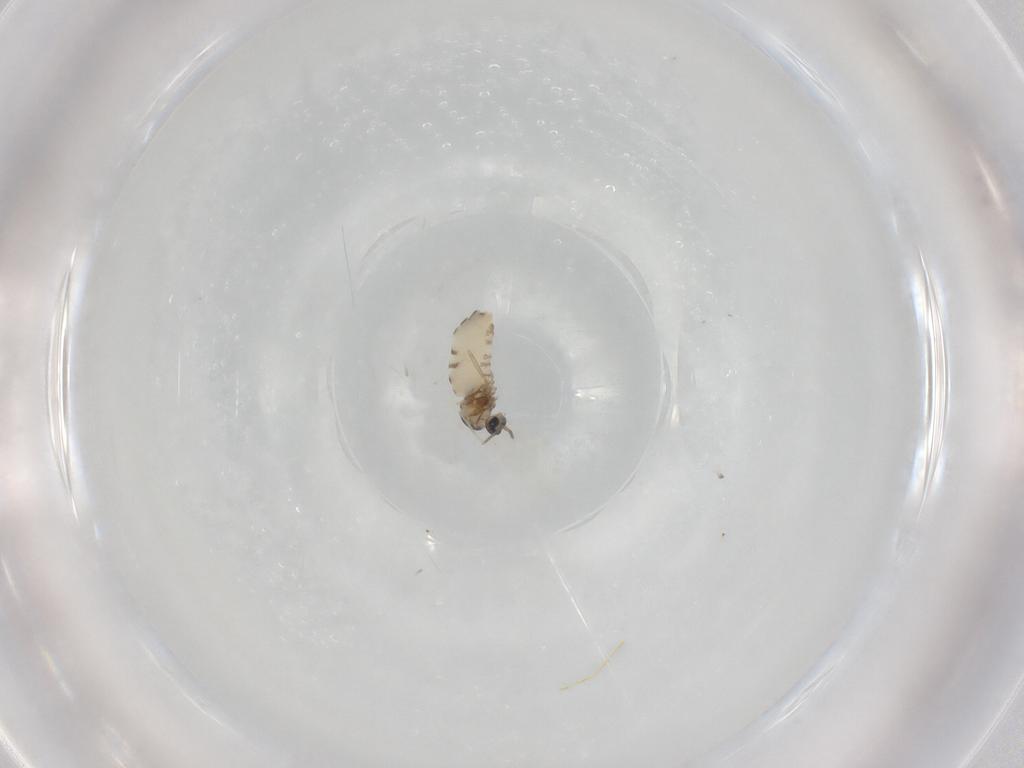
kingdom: Animalia
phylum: Arthropoda
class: Insecta
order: Diptera
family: Cecidomyiidae
